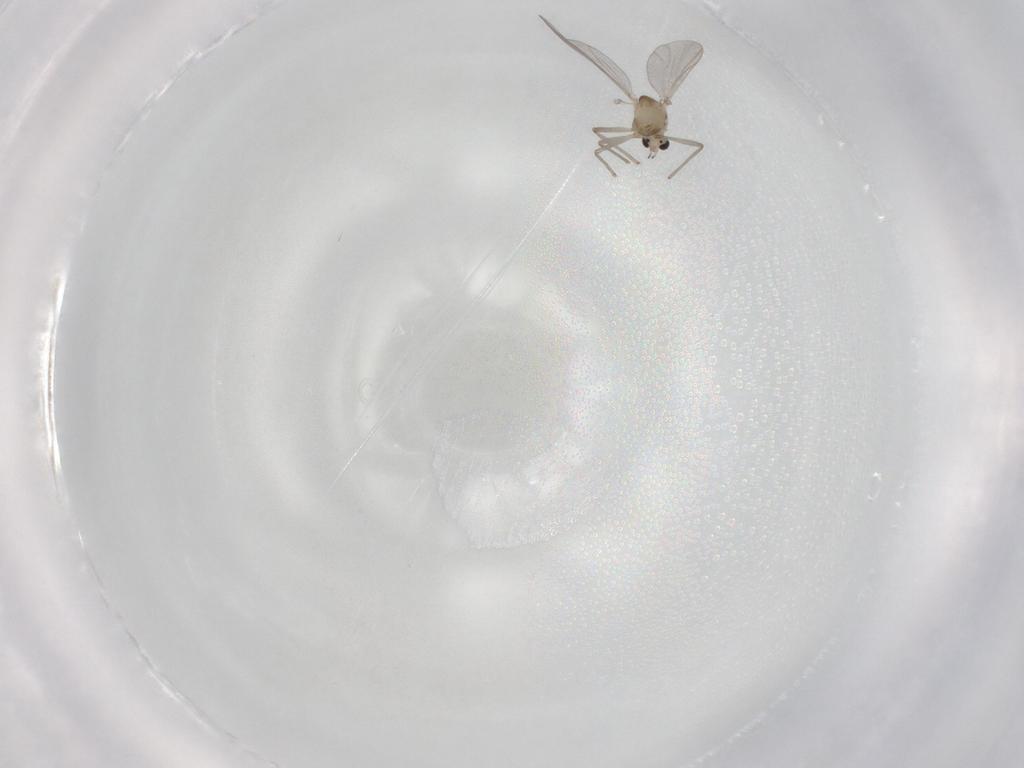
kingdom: Animalia
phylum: Arthropoda
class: Insecta
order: Diptera
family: Chironomidae
